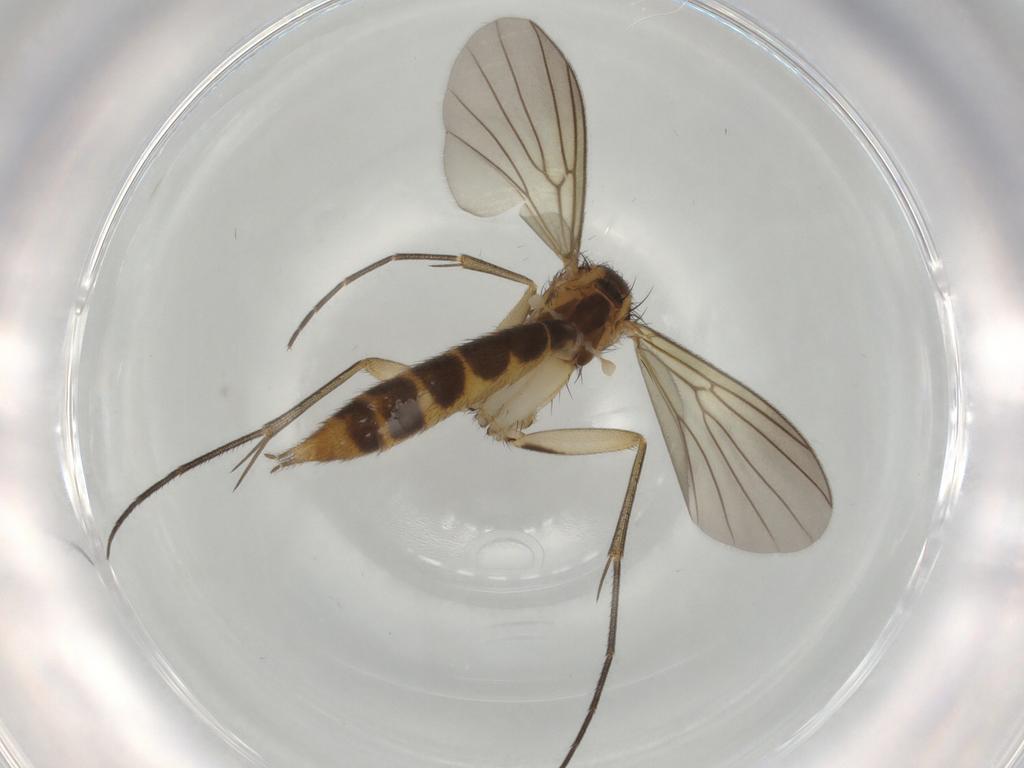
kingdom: Animalia
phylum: Arthropoda
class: Insecta
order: Diptera
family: Mycetophilidae
